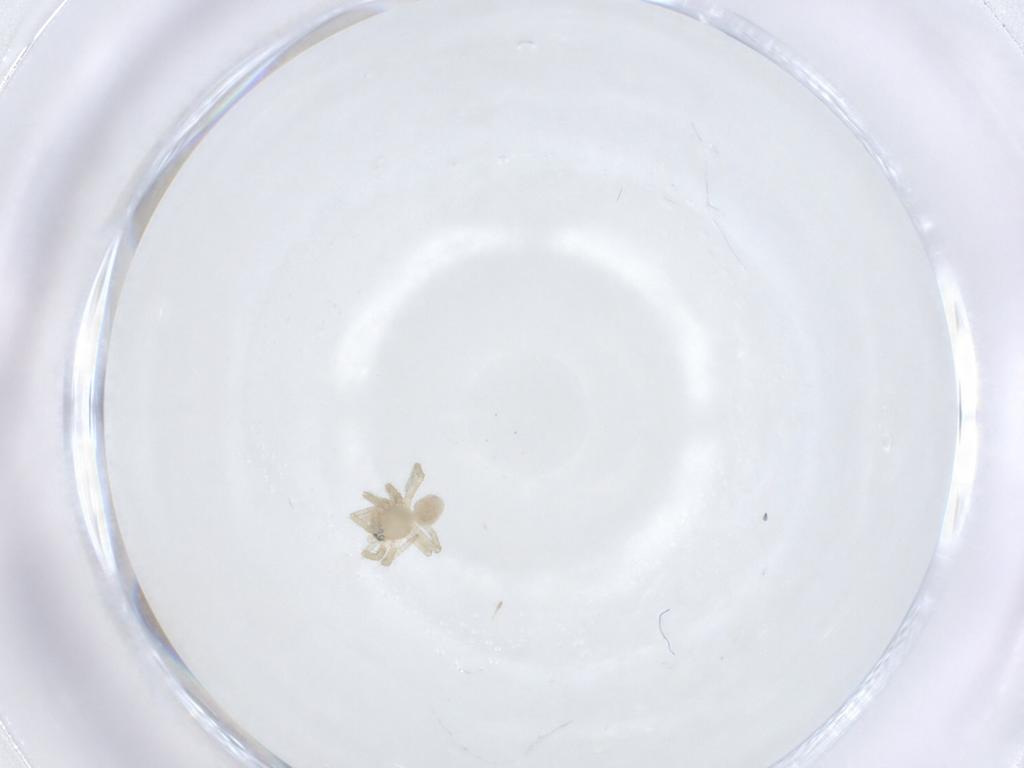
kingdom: Animalia
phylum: Arthropoda
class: Arachnida
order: Araneae
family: Linyphiidae
